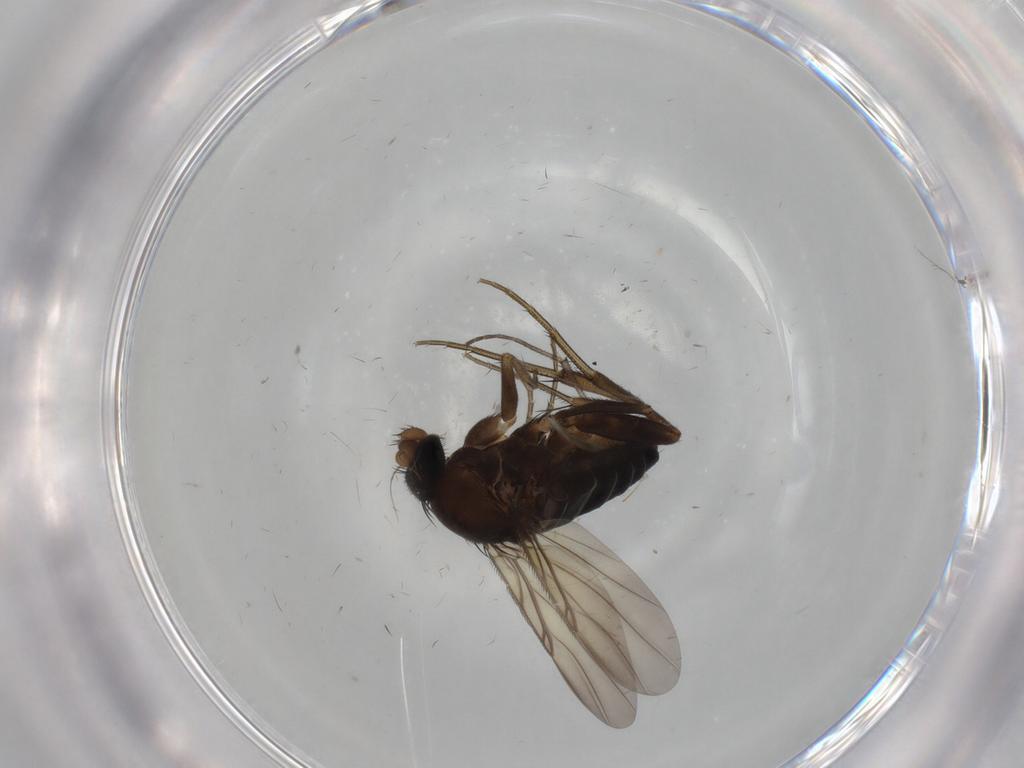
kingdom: Animalia
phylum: Arthropoda
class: Insecta
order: Diptera
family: Phoridae
